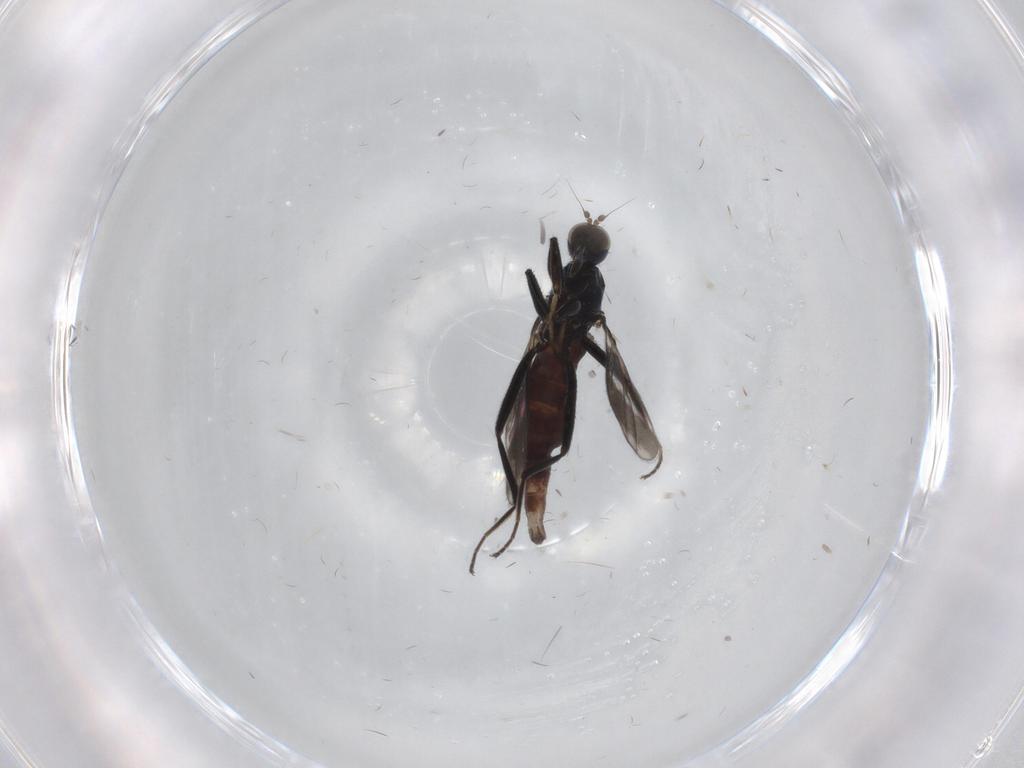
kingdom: Animalia
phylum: Arthropoda
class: Insecta
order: Diptera
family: Hybotidae
